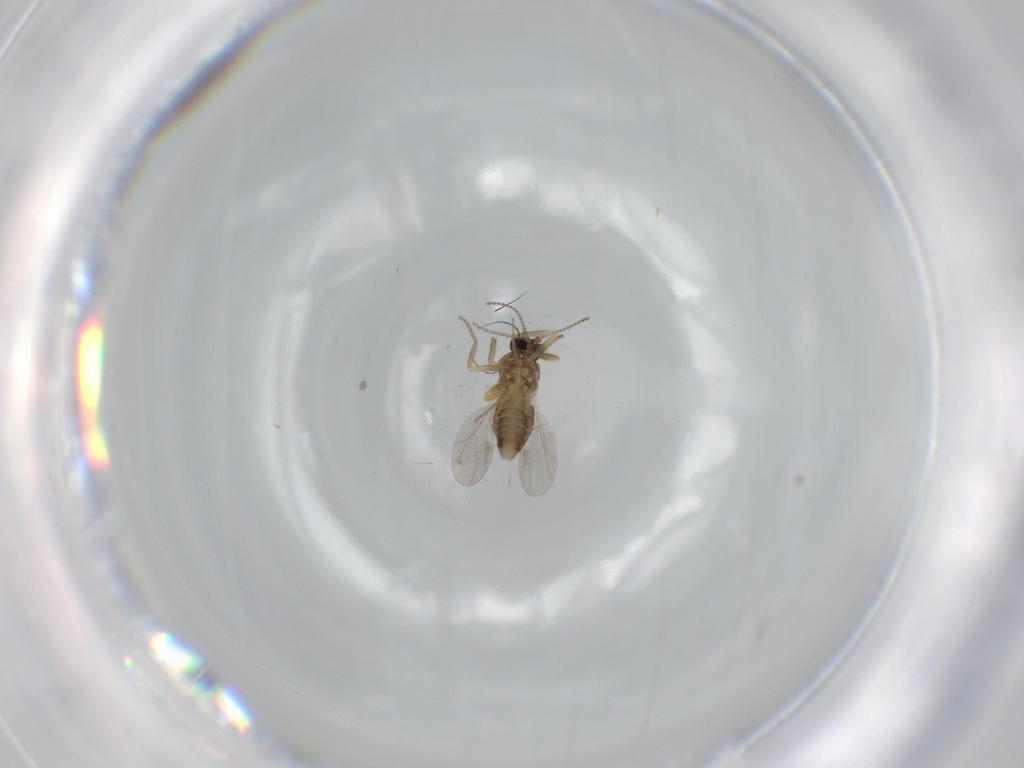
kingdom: Animalia
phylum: Arthropoda
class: Insecta
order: Diptera
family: Ceratopogonidae
